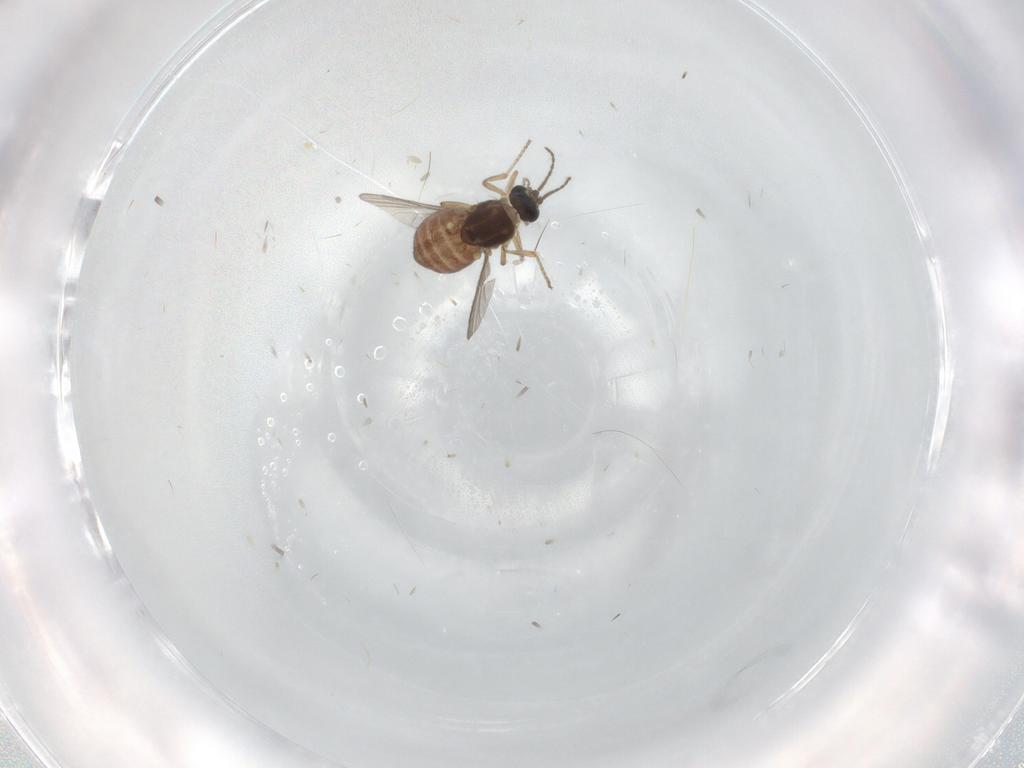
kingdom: Animalia
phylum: Arthropoda
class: Insecta
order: Diptera
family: Ceratopogonidae
